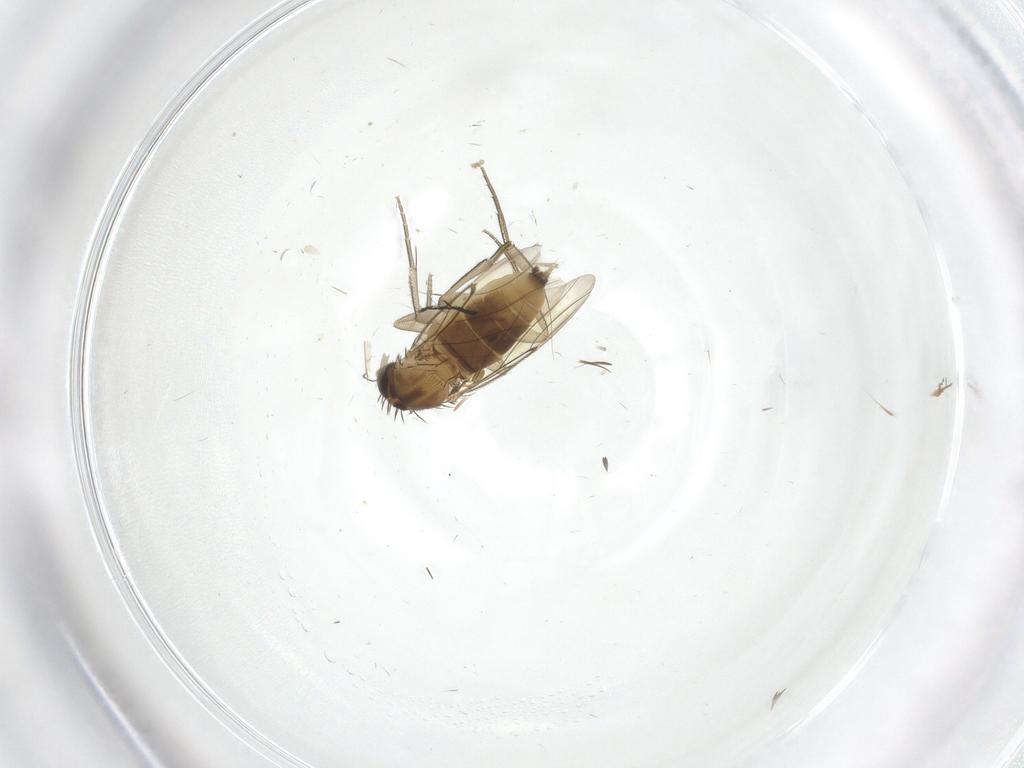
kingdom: Animalia
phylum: Arthropoda
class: Insecta
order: Diptera
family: Phoridae
